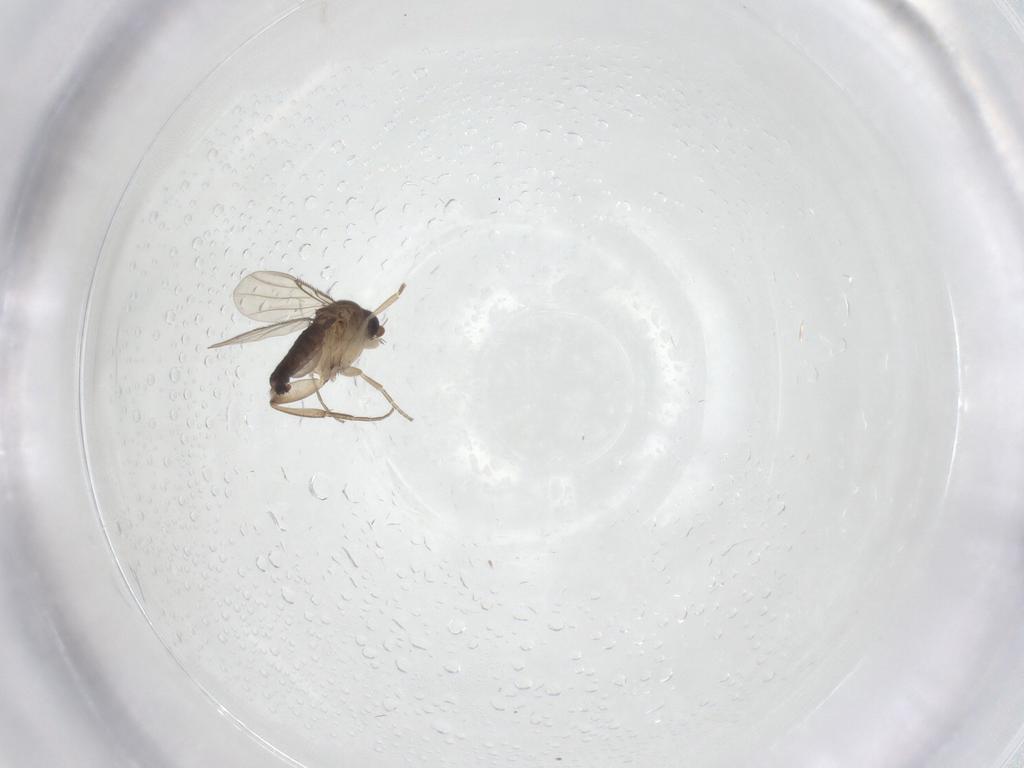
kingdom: Animalia
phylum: Arthropoda
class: Insecta
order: Diptera
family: Phoridae
